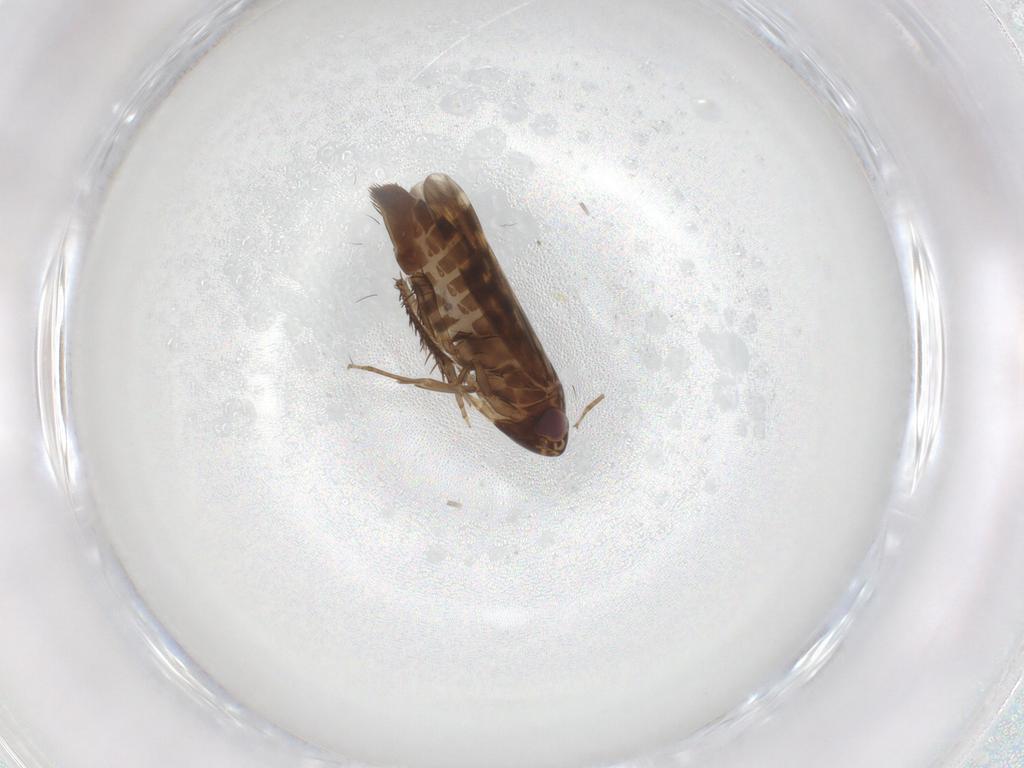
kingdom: Animalia
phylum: Arthropoda
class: Insecta
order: Hemiptera
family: Cicadellidae
